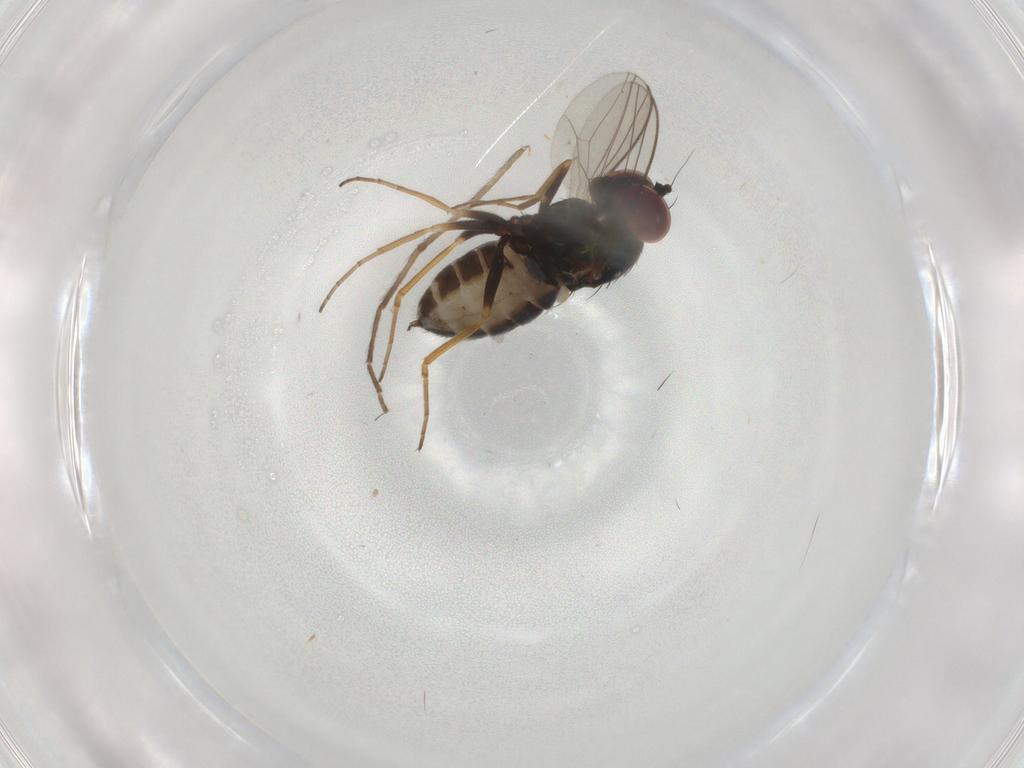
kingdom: Animalia
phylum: Arthropoda
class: Insecta
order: Diptera
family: Dolichopodidae
